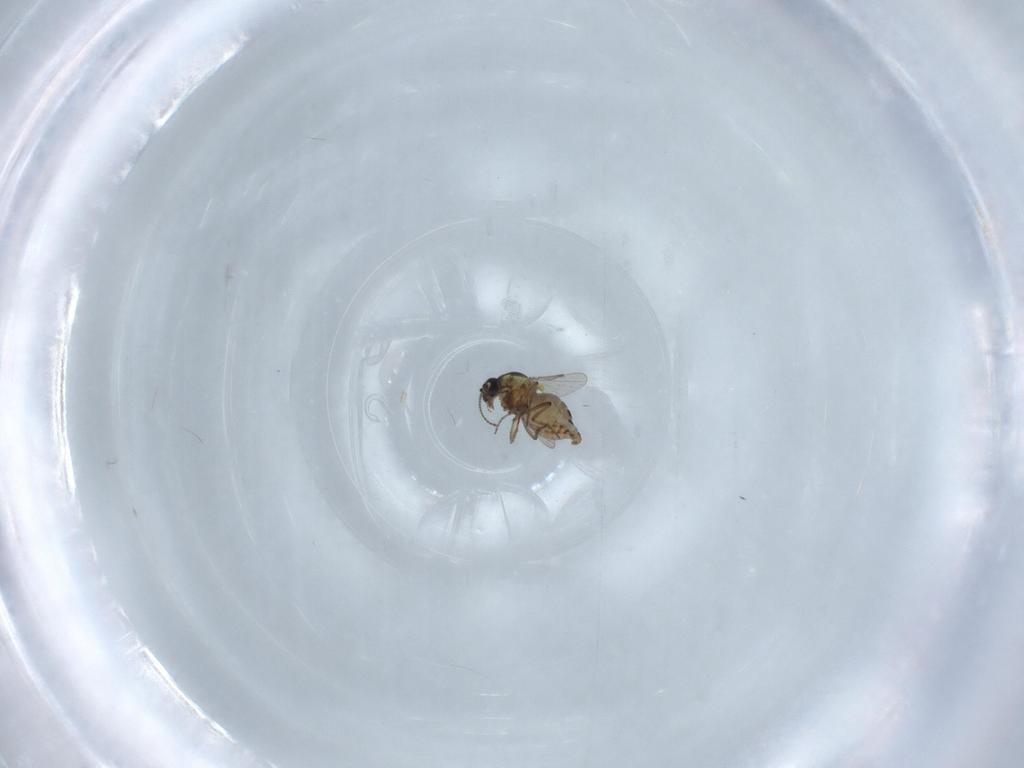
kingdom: Animalia
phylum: Arthropoda
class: Insecta
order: Diptera
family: Ceratopogonidae
